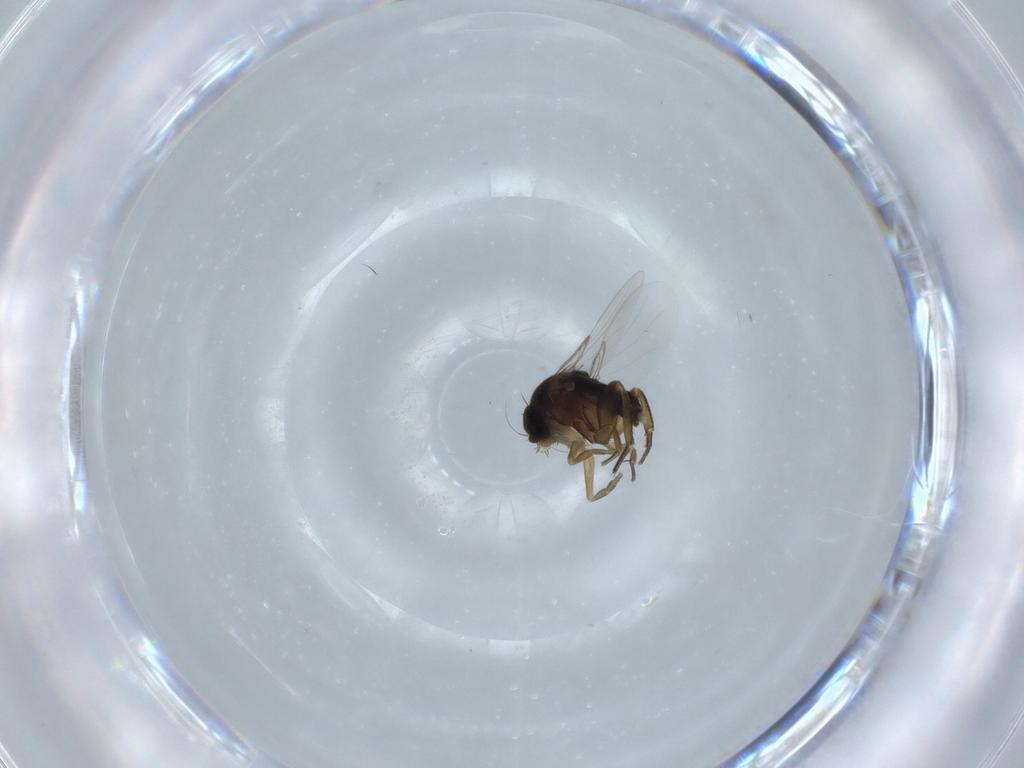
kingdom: Animalia
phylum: Arthropoda
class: Insecta
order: Diptera
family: Phoridae
